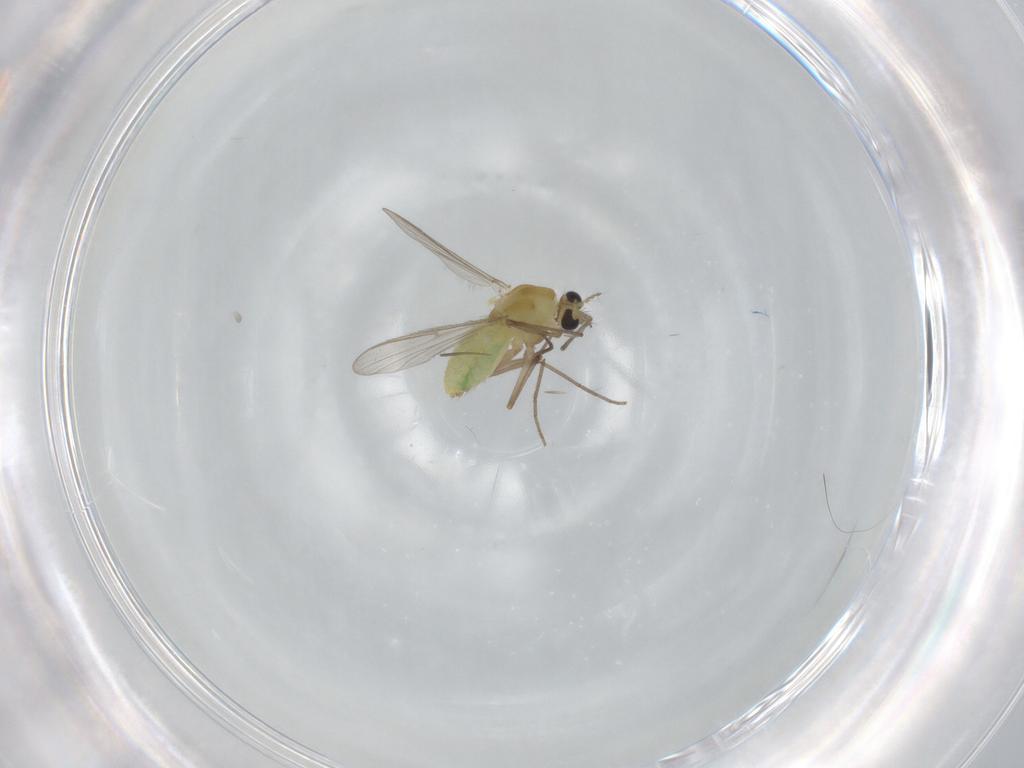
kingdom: Animalia
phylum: Arthropoda
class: Insecta
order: Diptera
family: Chironomidae
